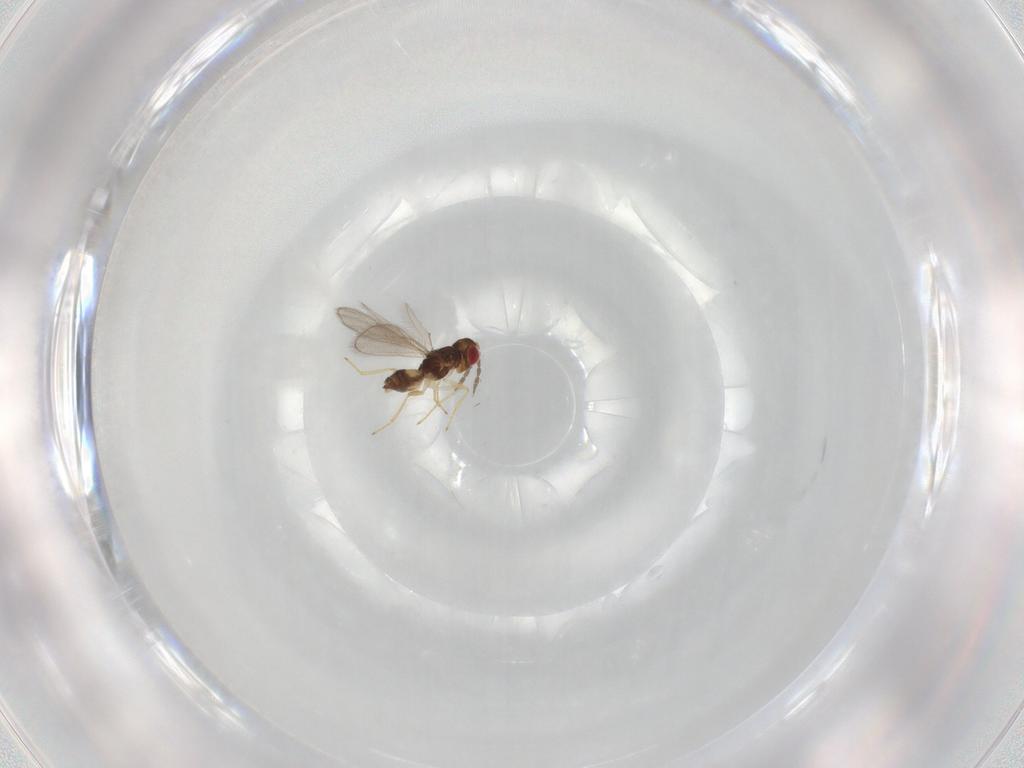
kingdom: Animalia
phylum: Arthropoda
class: Insecta
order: Hymenoptera
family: Eulophidae
